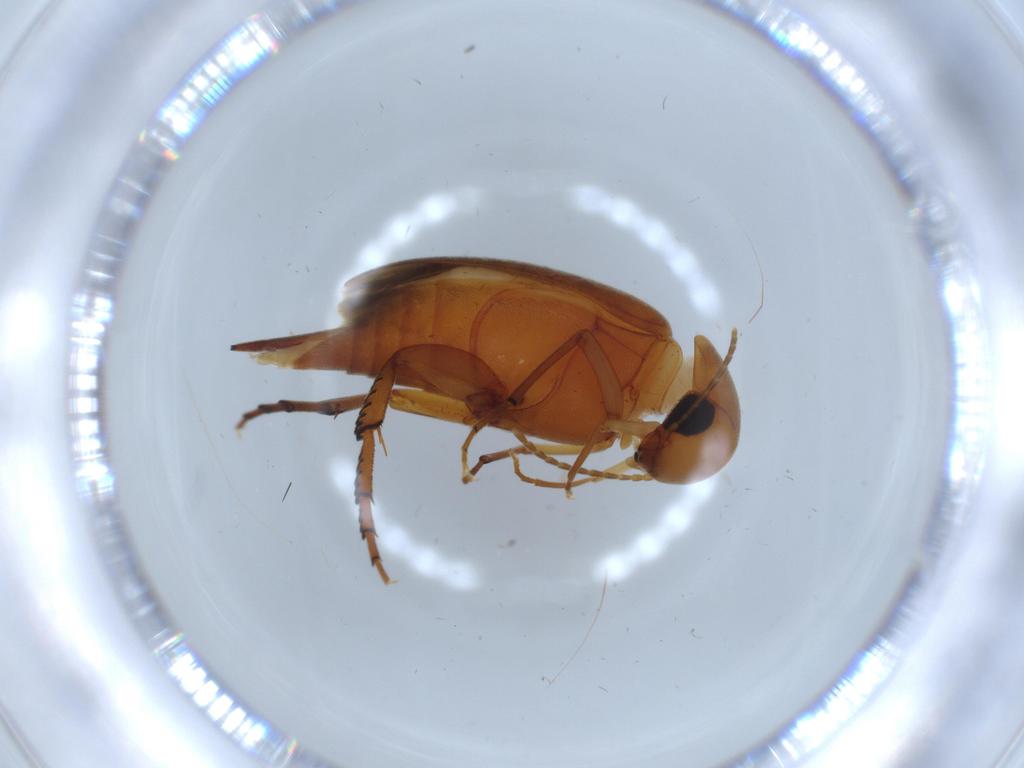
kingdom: Animalia
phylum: Arthropoda
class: Insecta
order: Coleoptera
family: Mordellidae
